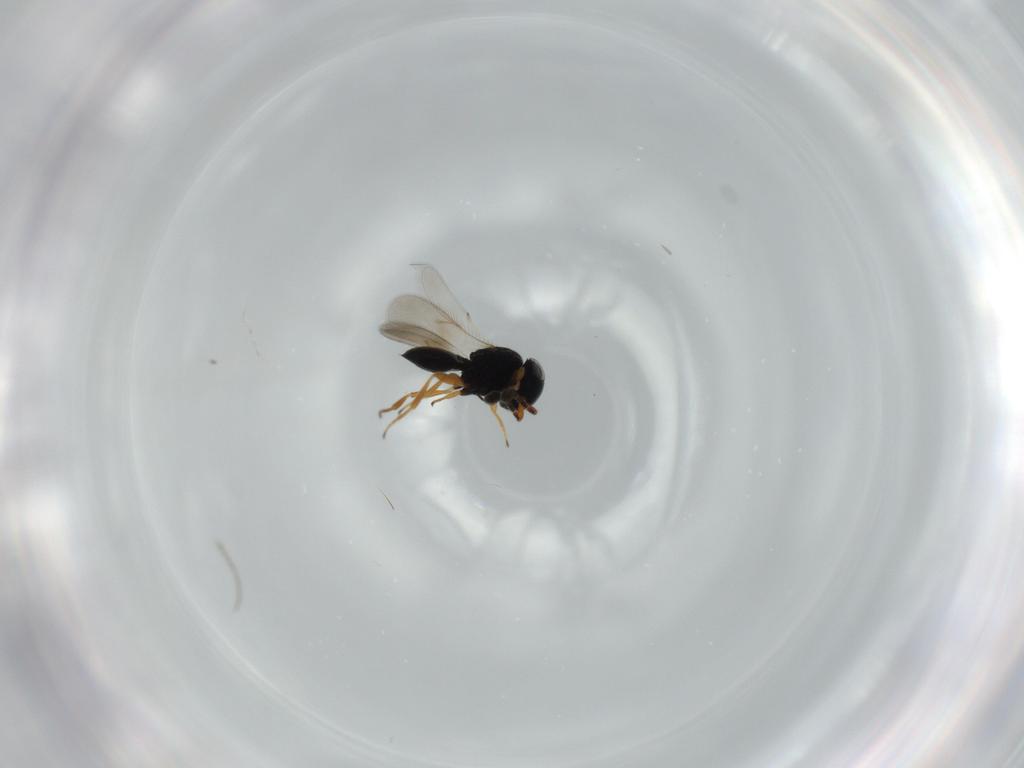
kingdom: Animalia
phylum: Arthropoda
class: Insecta
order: Hymenoptera
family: Scelionidae
